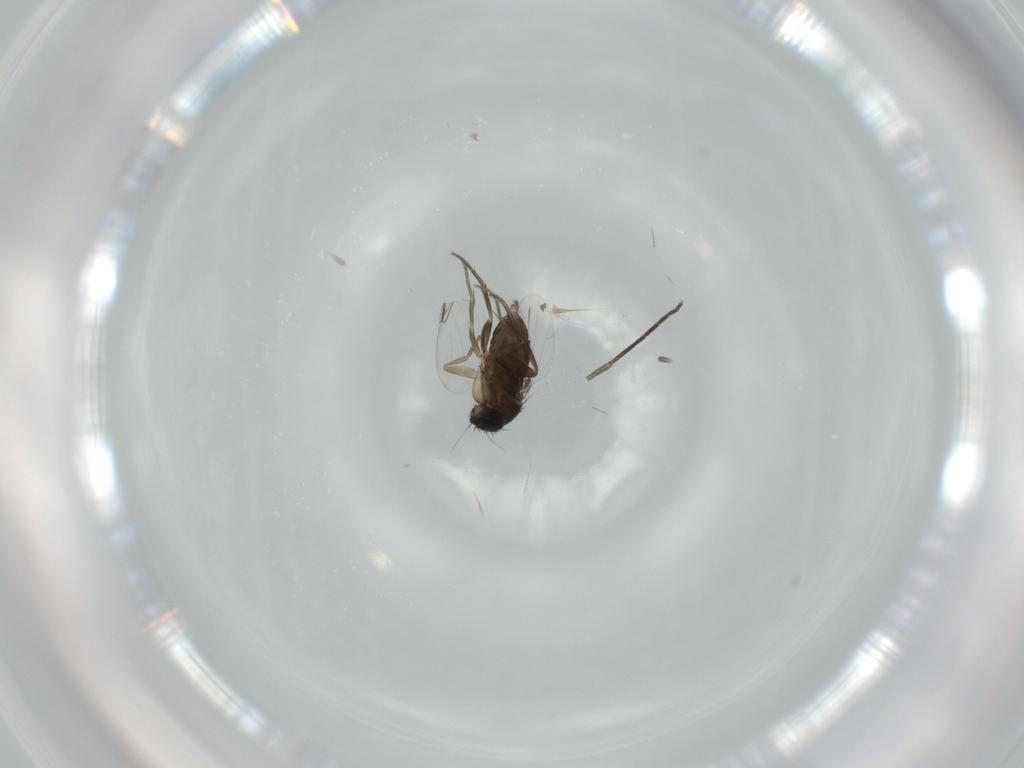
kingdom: Animalia
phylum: Arthropoda
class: Insecta
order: Diptera
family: Phoridae
